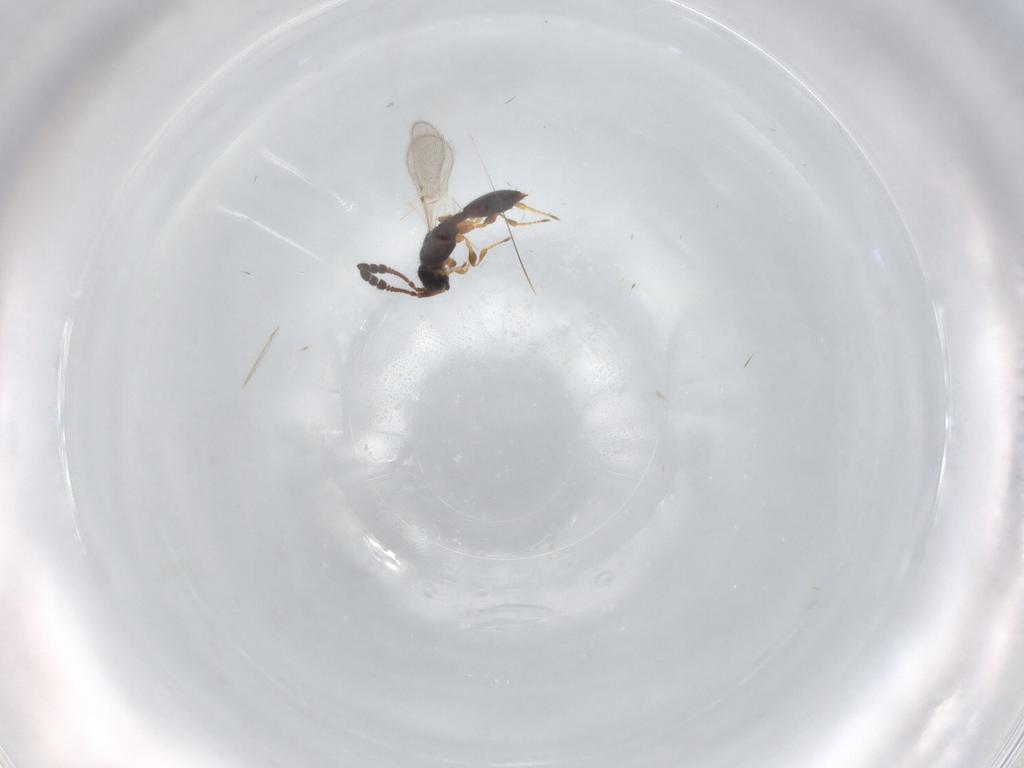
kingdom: Animalia
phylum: Arthropoda
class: Insecta
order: Hymenoptera
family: Diapriidae
